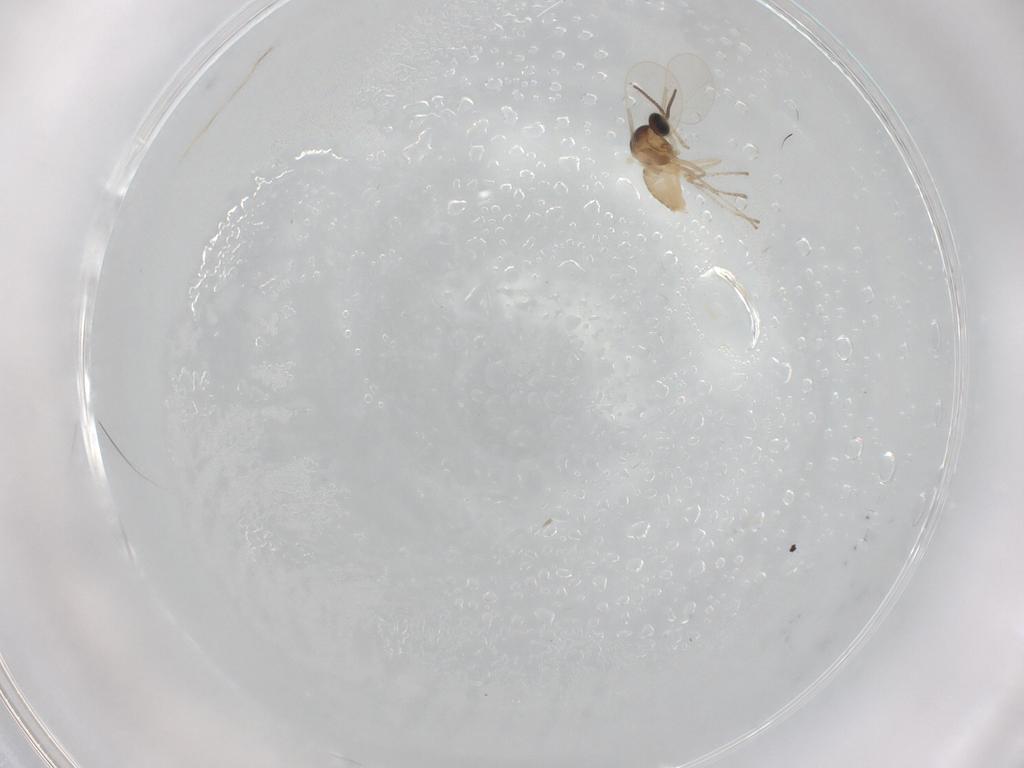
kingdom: Animalia
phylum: Arthropoda
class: Insecta
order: Diptera
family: Cecidomyiidae
